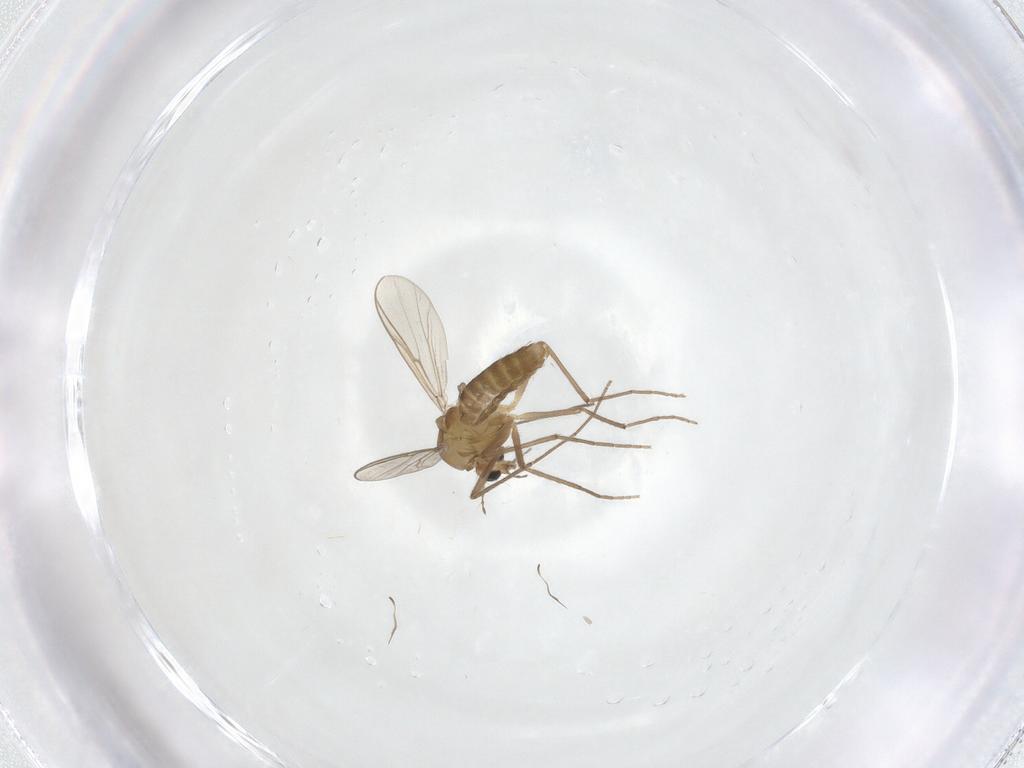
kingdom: Animalia
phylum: Arthropoda
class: Insecta
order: Diptera
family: Chironomidae
